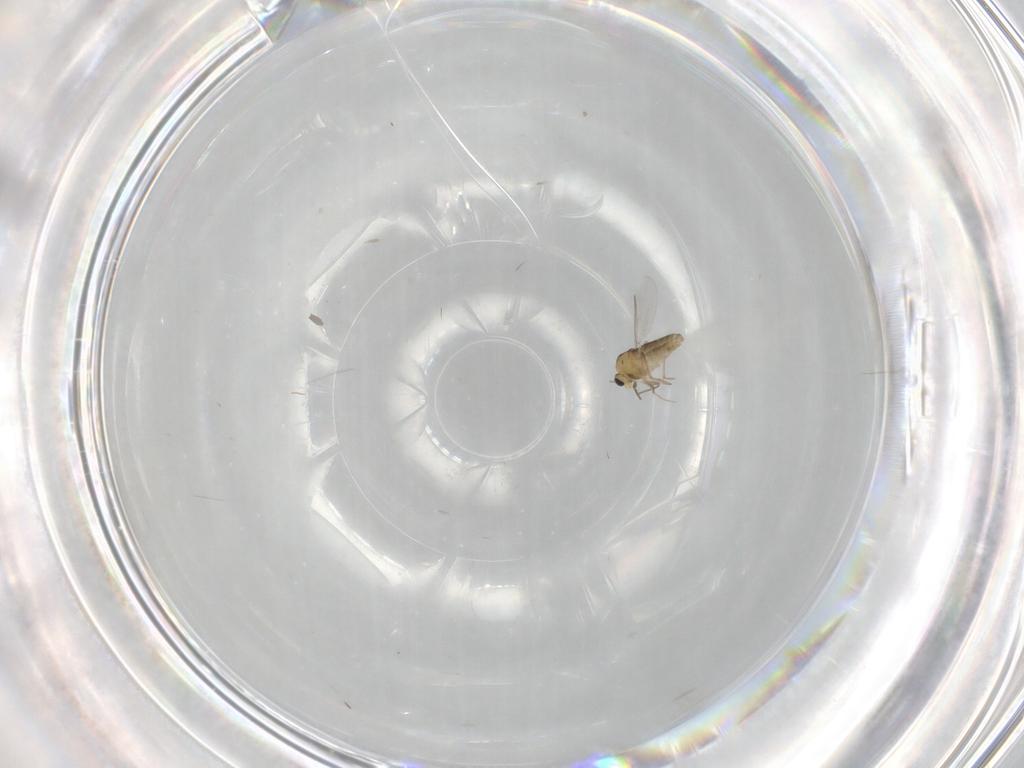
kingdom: Animalia
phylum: Arthropoda
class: Insecta
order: Diptera
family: Chironomidae
